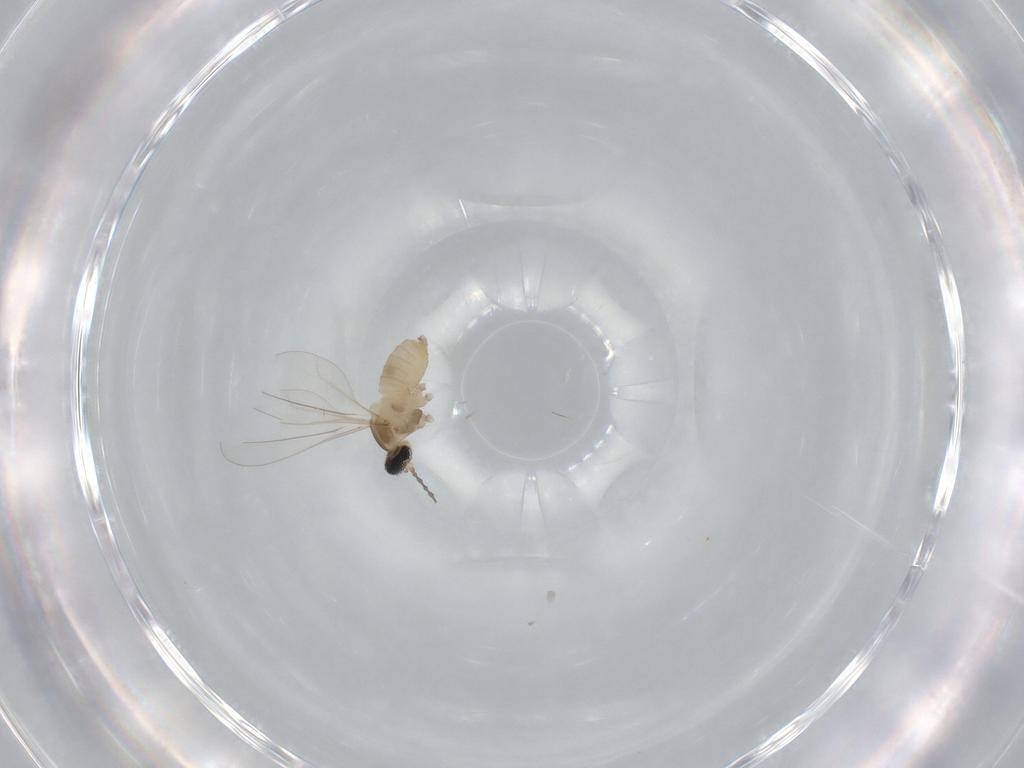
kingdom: Animalia
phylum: Arthropoda
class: Insecta
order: Diptera
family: Cecidomyiidae
